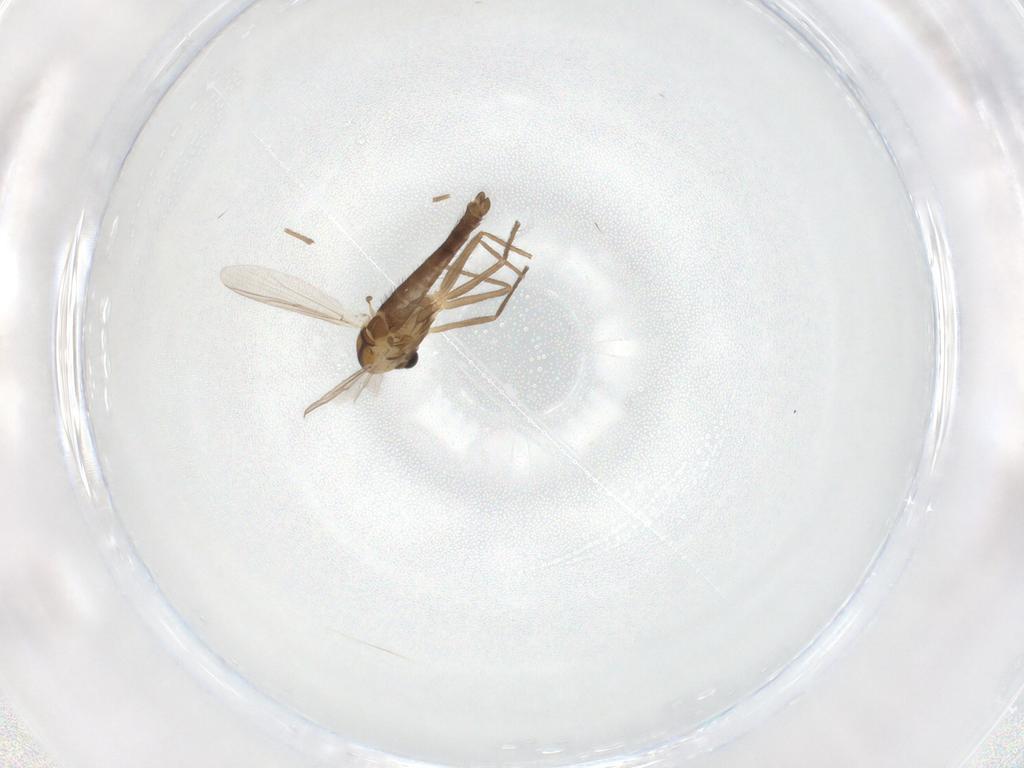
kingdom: Animalia
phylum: Arthropoda
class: Insecta
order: Diptera
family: Chironomidae
